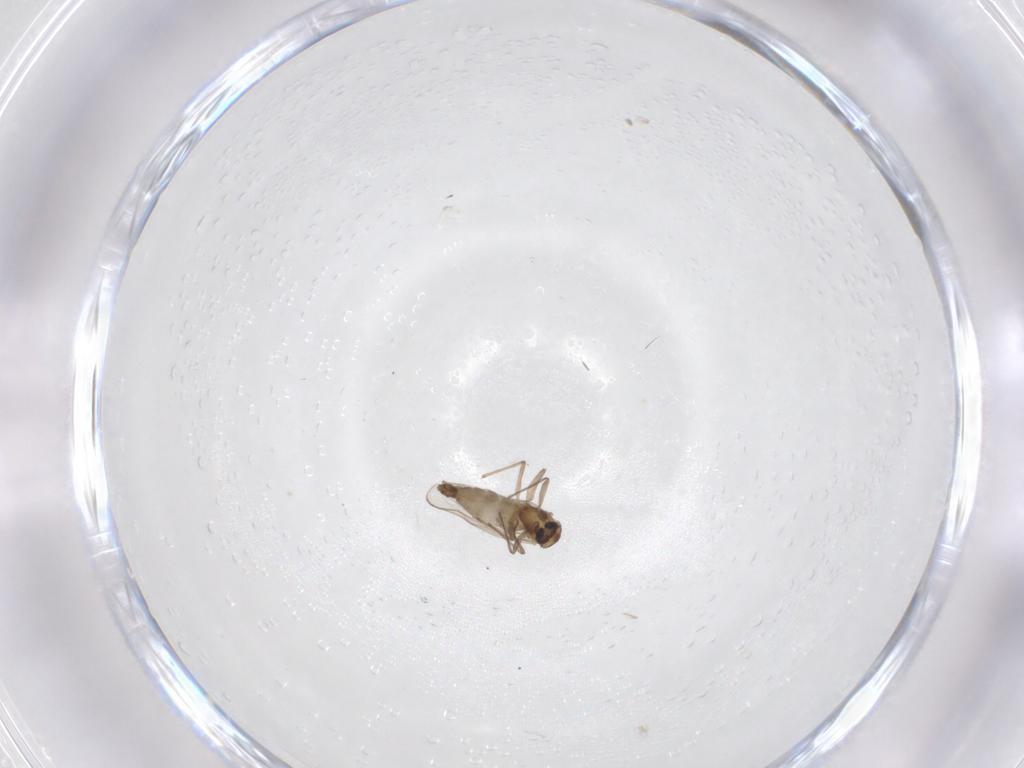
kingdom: Animalia
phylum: Arthropoda
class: Insecta
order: Diptera
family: Chironomidae
